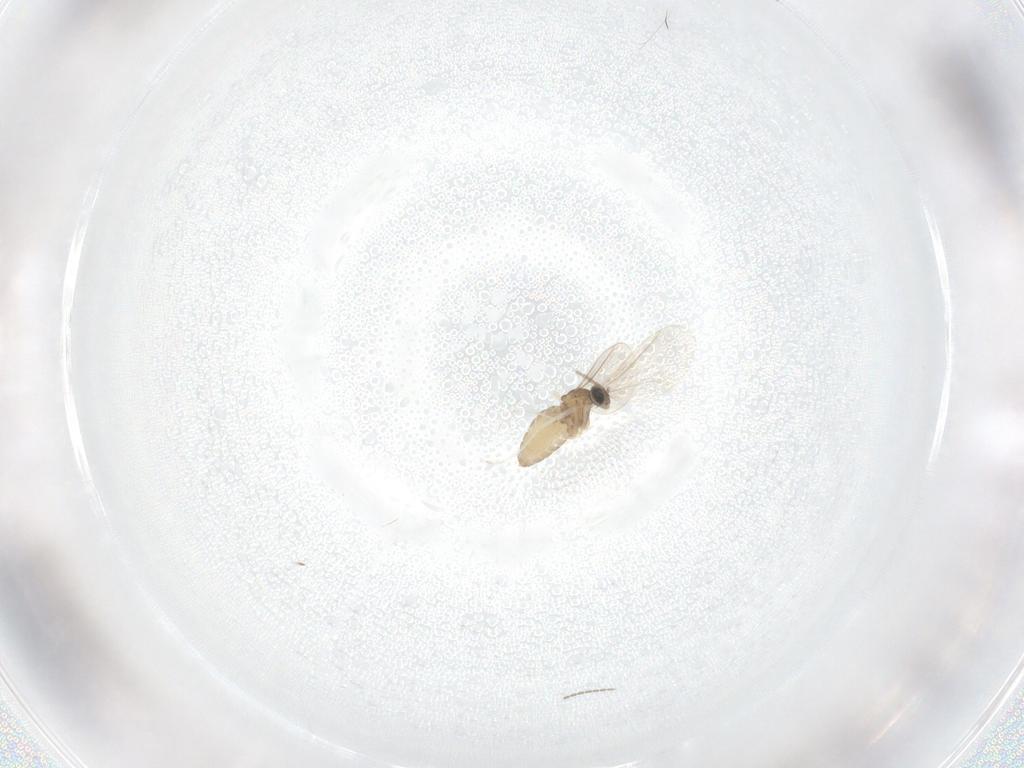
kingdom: Animalia
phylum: Arthropoda
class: Insecta
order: Diptera
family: Cecidomyiidae
